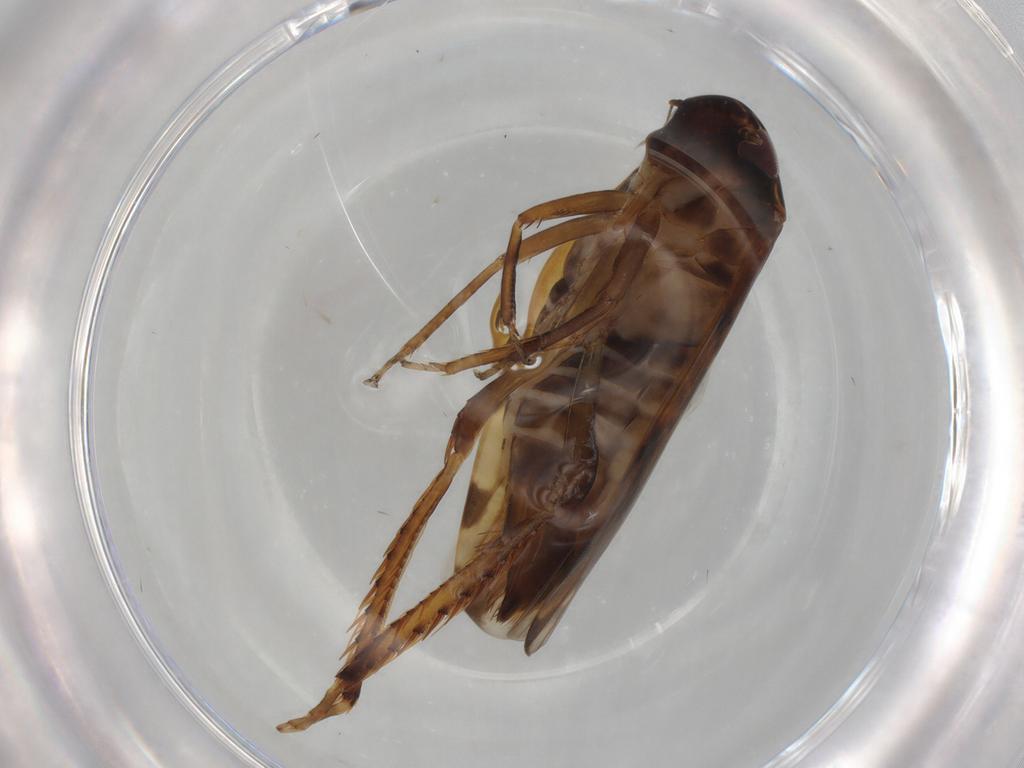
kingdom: Animalia
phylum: Arthropoda
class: Insecta
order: Hemiptera
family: Cicadellidae
